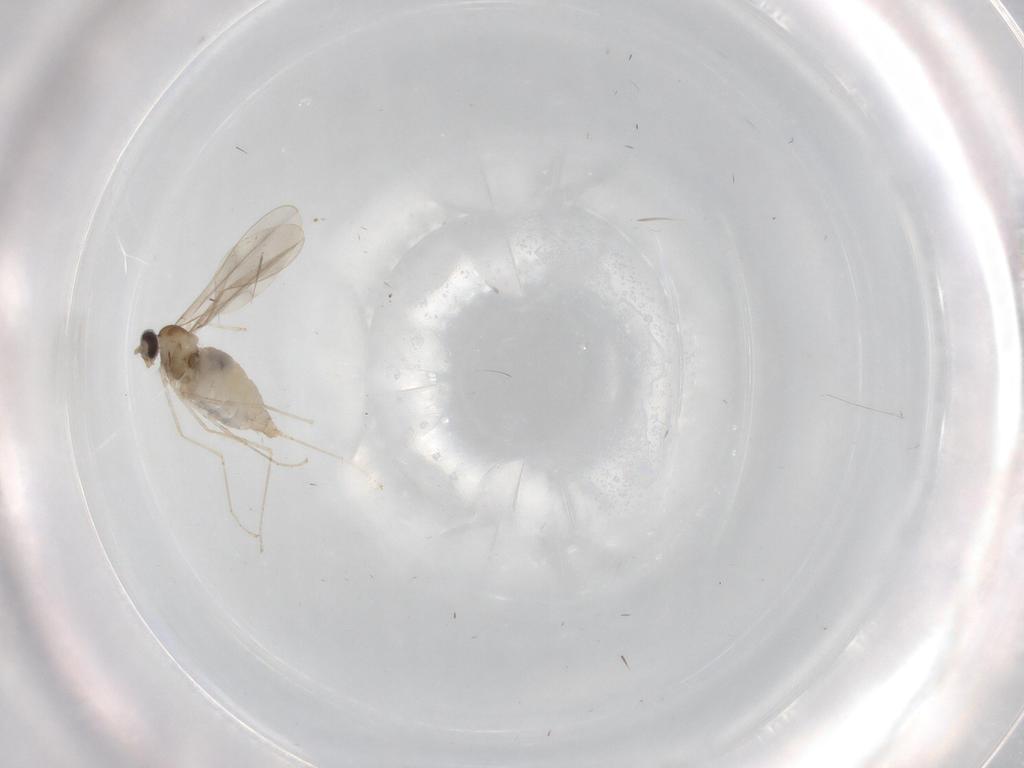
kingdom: Animalia
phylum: Arthropoda
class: Insecta
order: Diptera
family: Cecidomyiidae
